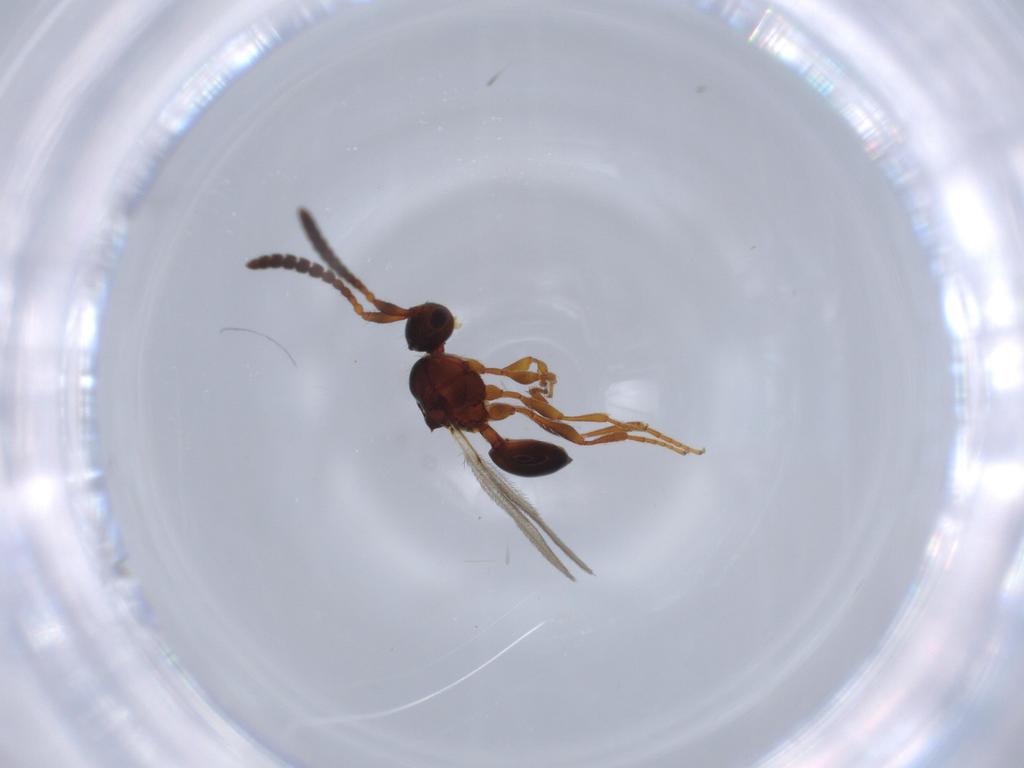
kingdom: Animalia
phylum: Arthropoda
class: Insecta
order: Hymenoptera
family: Diapriidae
